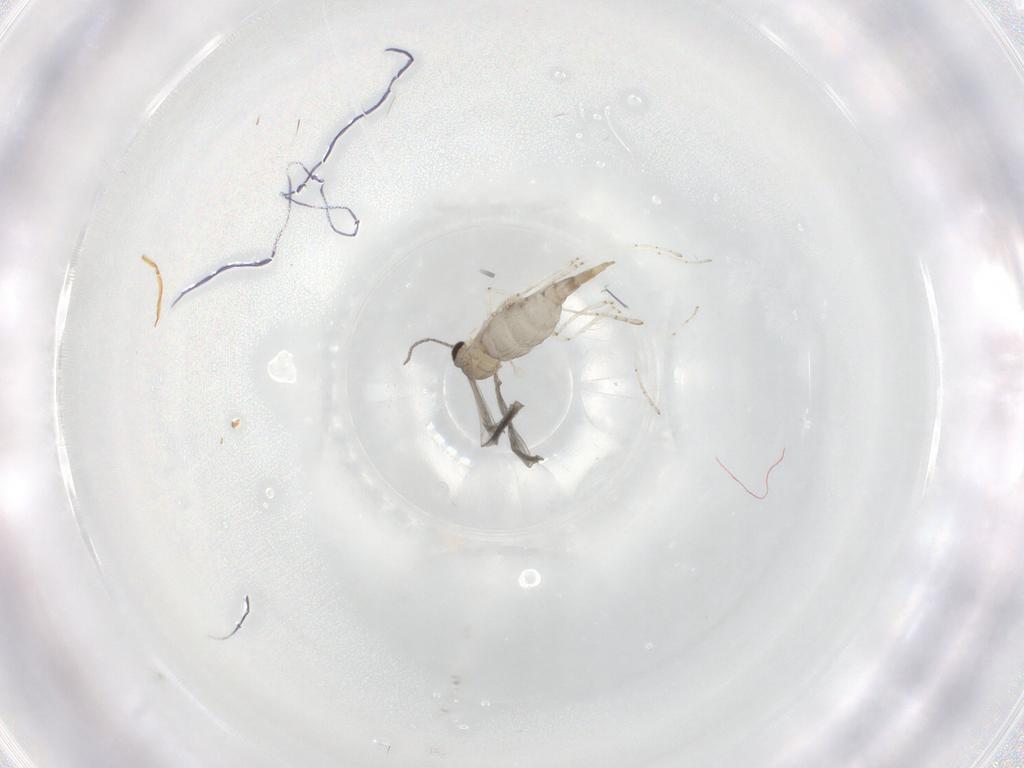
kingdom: Animalia
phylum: Arthropoda
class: Insecta
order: Diptera
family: Cecidomyiidae
